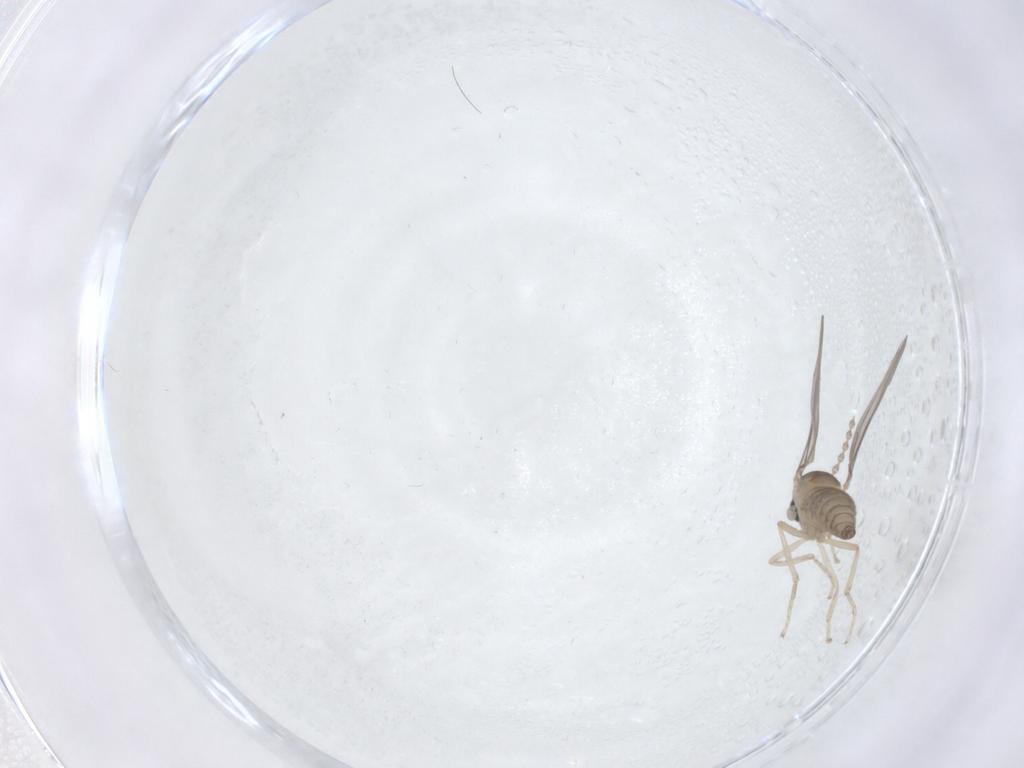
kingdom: Animalia
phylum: Arthropoda
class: Insecta
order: Diptera
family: Cecidomyiidae
